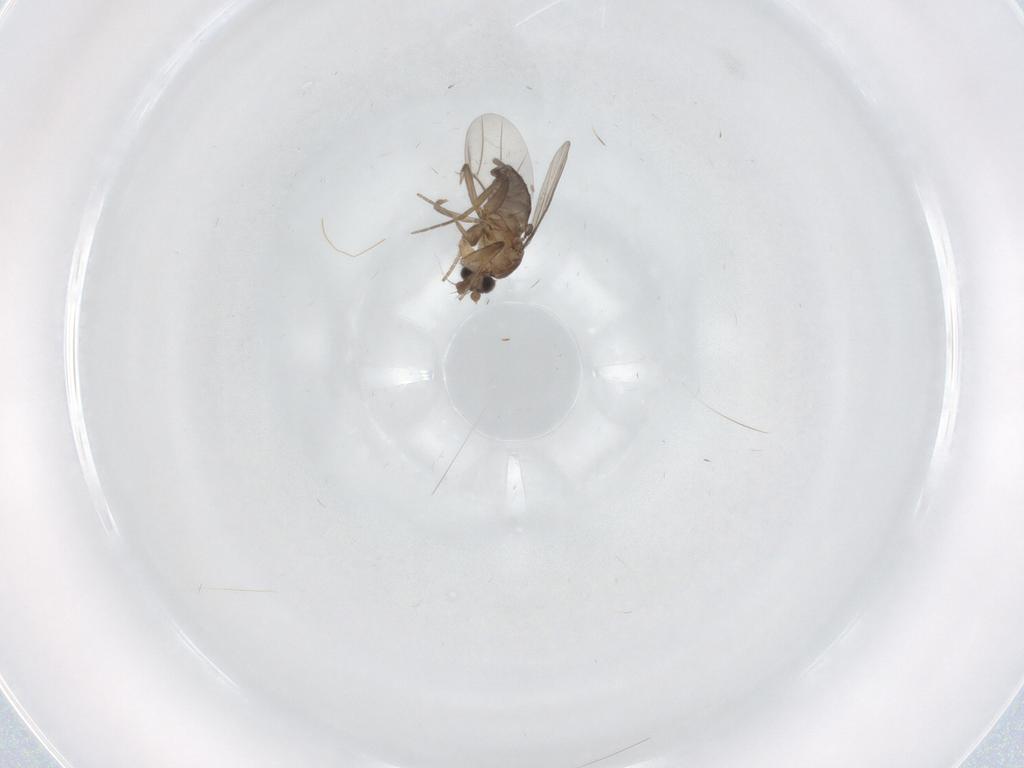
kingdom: Animalia
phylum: Arthropoda
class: Insecta
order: Diptera
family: Phoridae
